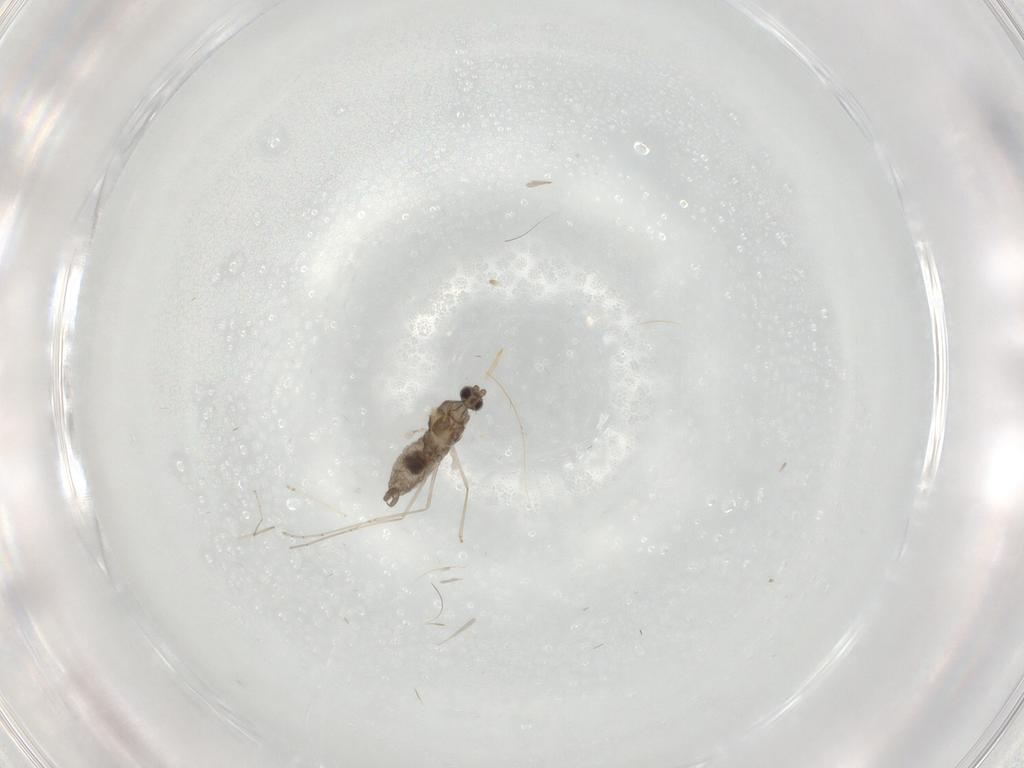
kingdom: Animalia
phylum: Arthropoda
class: Insecta
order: Diptera
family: Cecidomyiidae
